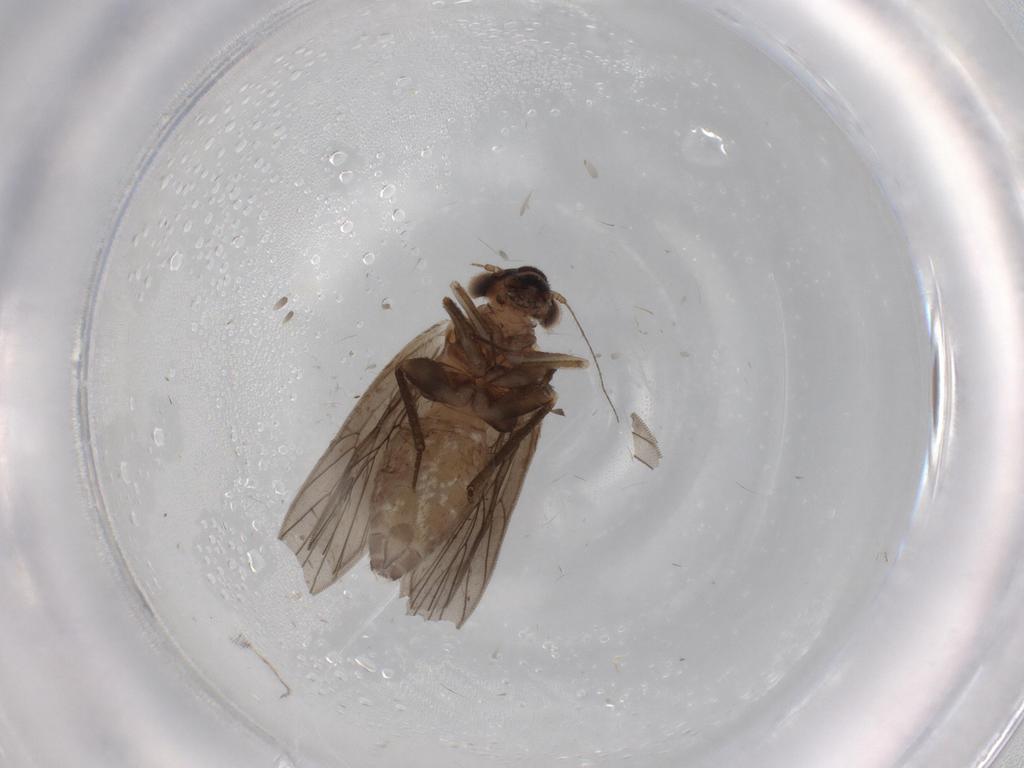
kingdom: Animalia
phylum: Arthropoda
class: Insecta
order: Psocodea
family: Lepidopsocidae
